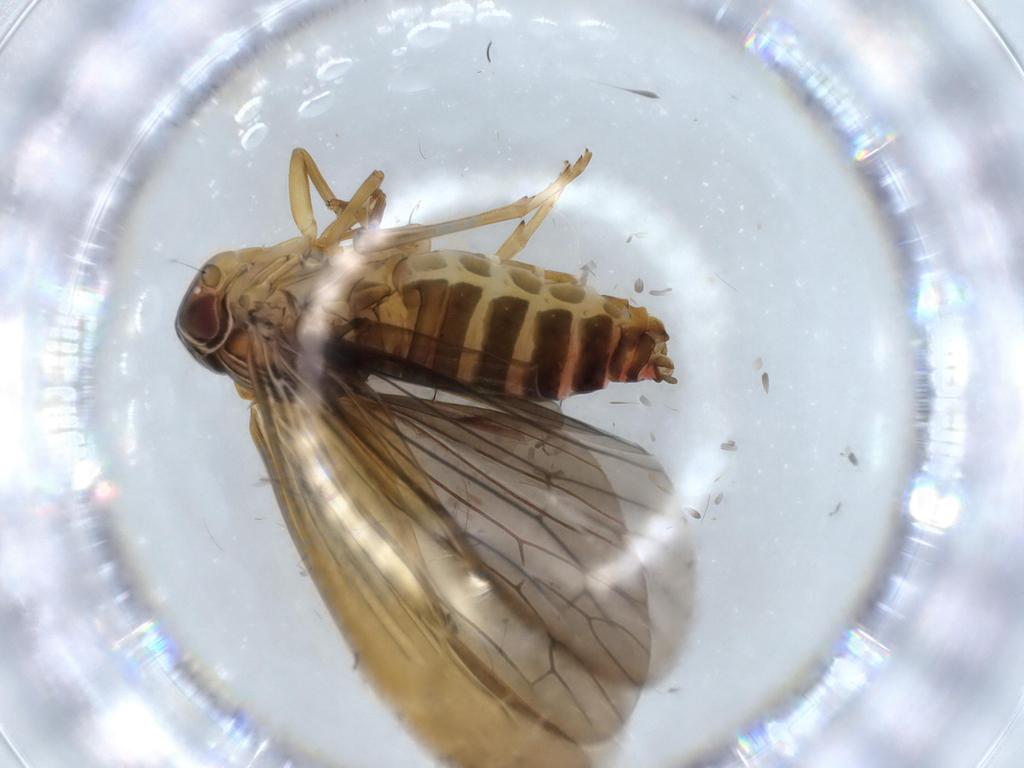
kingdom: Animalia
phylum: Arthropoda
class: Insecta
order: Hemiptera
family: Achilidae
